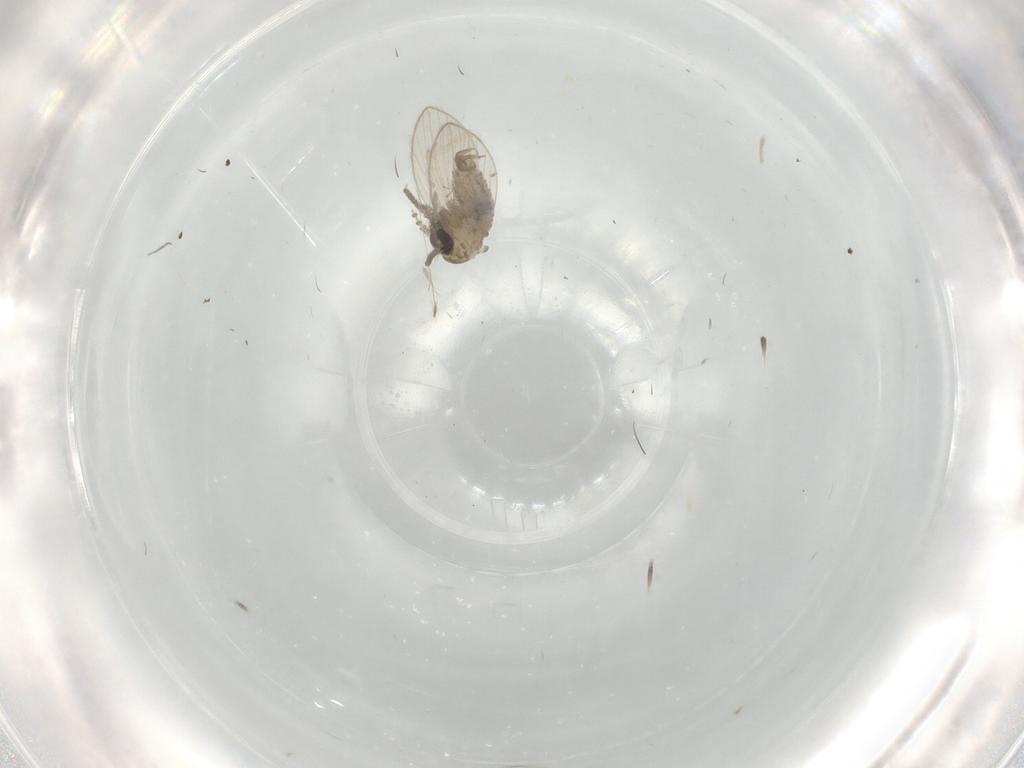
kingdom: Animalia
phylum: Arthropoda
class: Insecta
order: Diptera
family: Psychodidae
